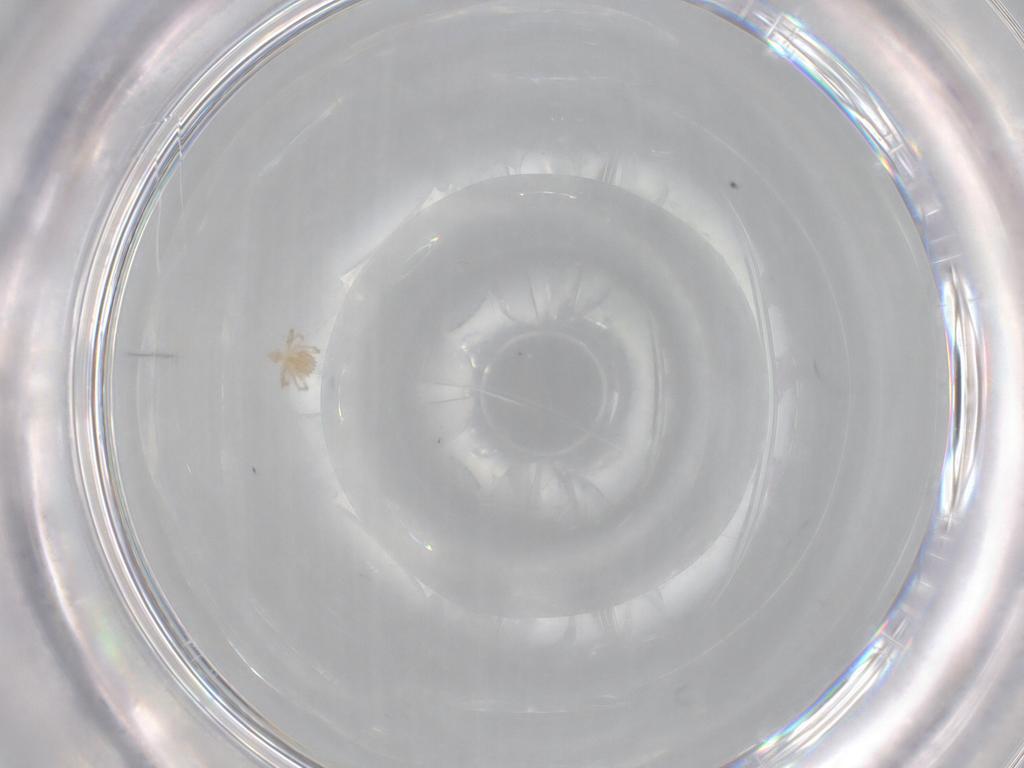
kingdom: Animalia
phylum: Arthropoda
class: Arachnida
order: Trombidiformes
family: Erythraeidae
